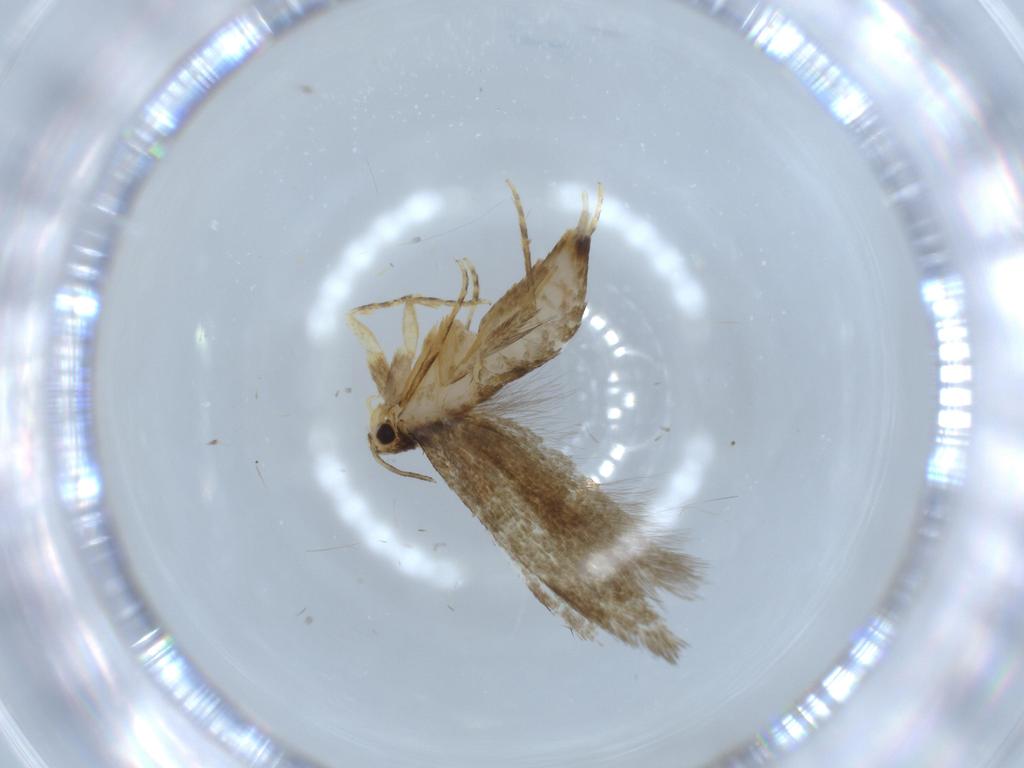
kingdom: Animalia
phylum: Arthropoda
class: Insecta
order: Lepidoptera
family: Tineidae
